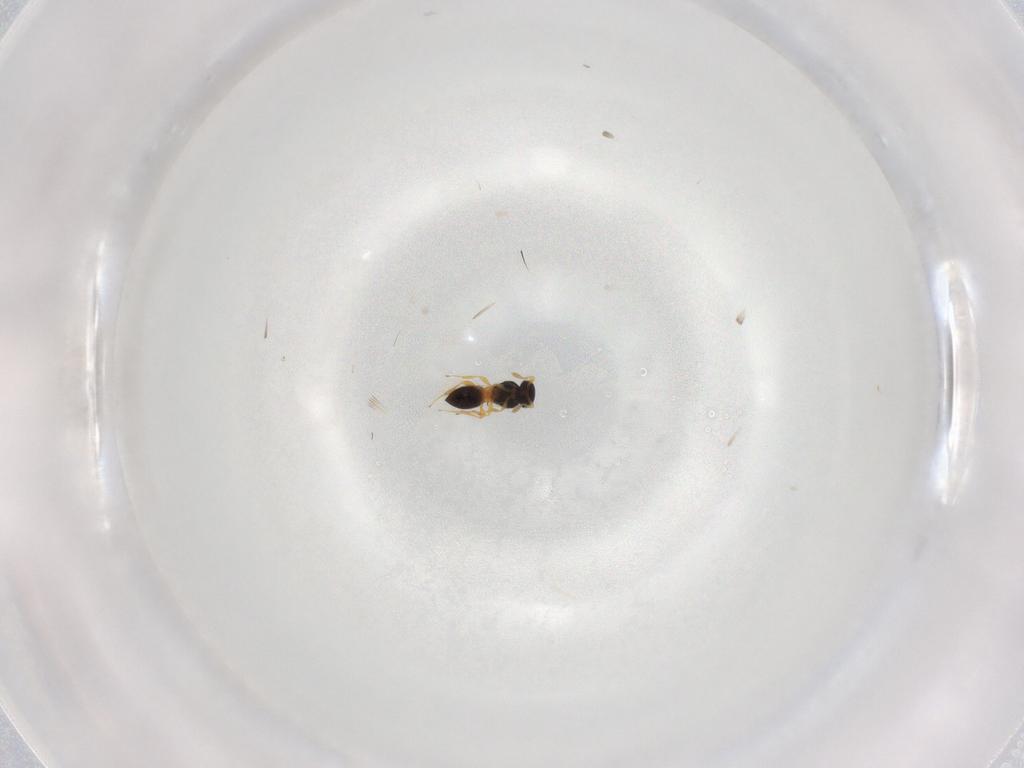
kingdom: Animalia
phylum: Arthropoda
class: Insecta
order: Hymenoptera
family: Platygastridae
